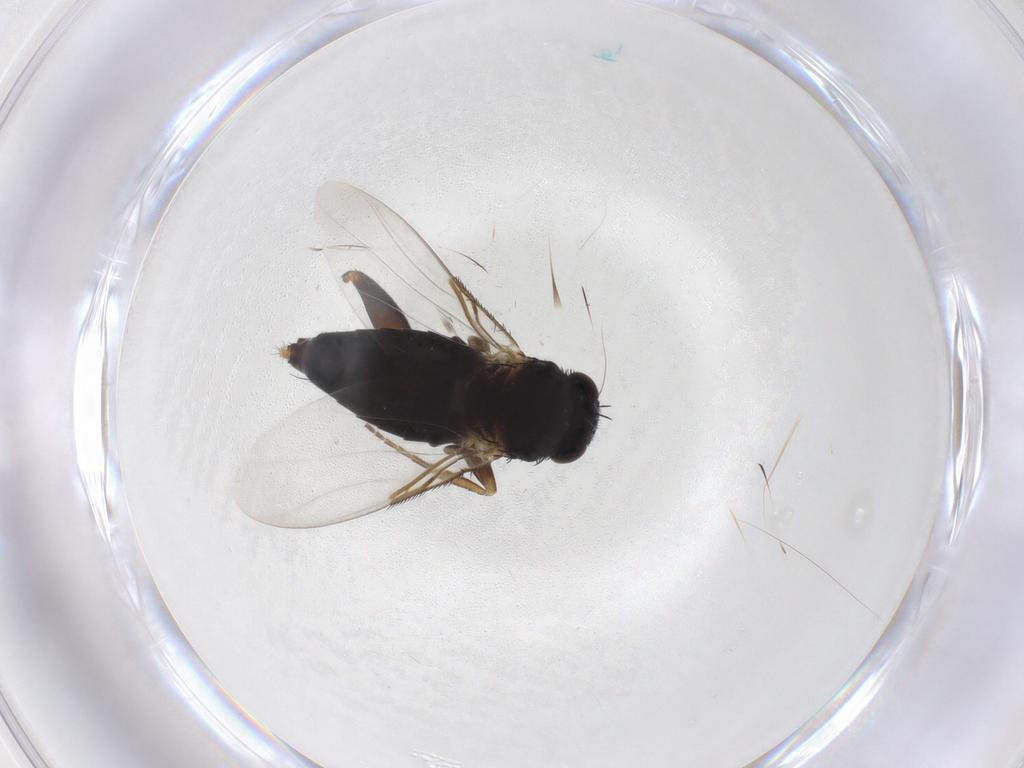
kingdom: Animalia
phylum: Arthropoda
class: Insecta
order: Diptera
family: Phoridae
